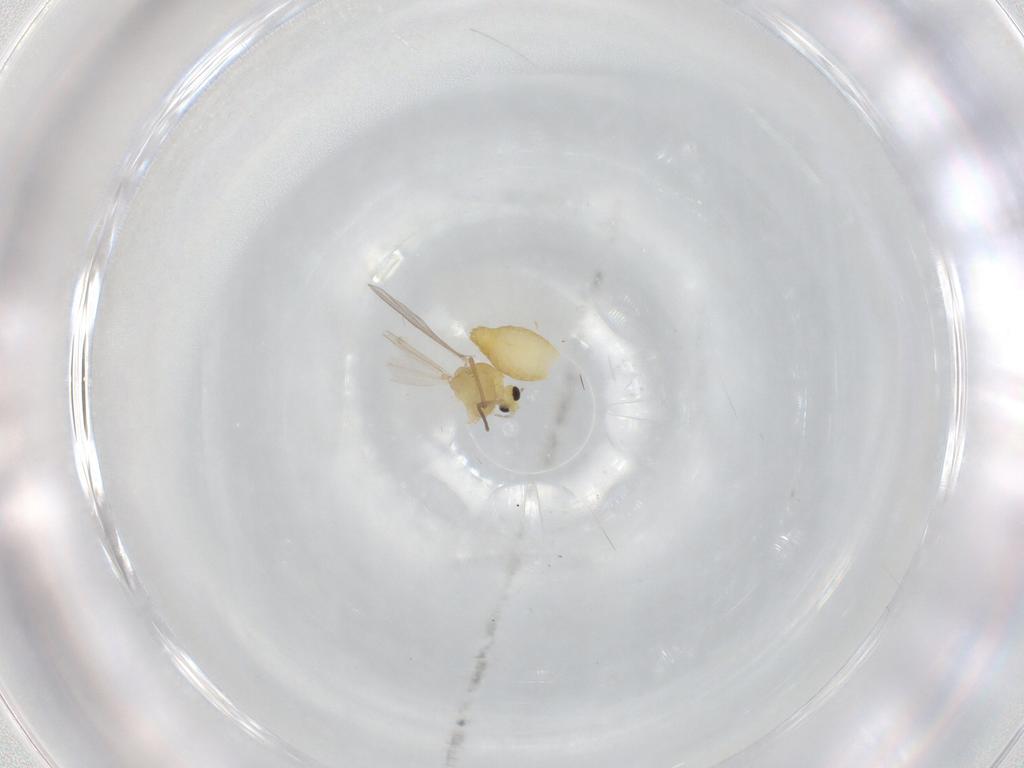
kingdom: Animalia
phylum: Arthropoda
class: Insecta
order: Diptera
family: Chironomidae
